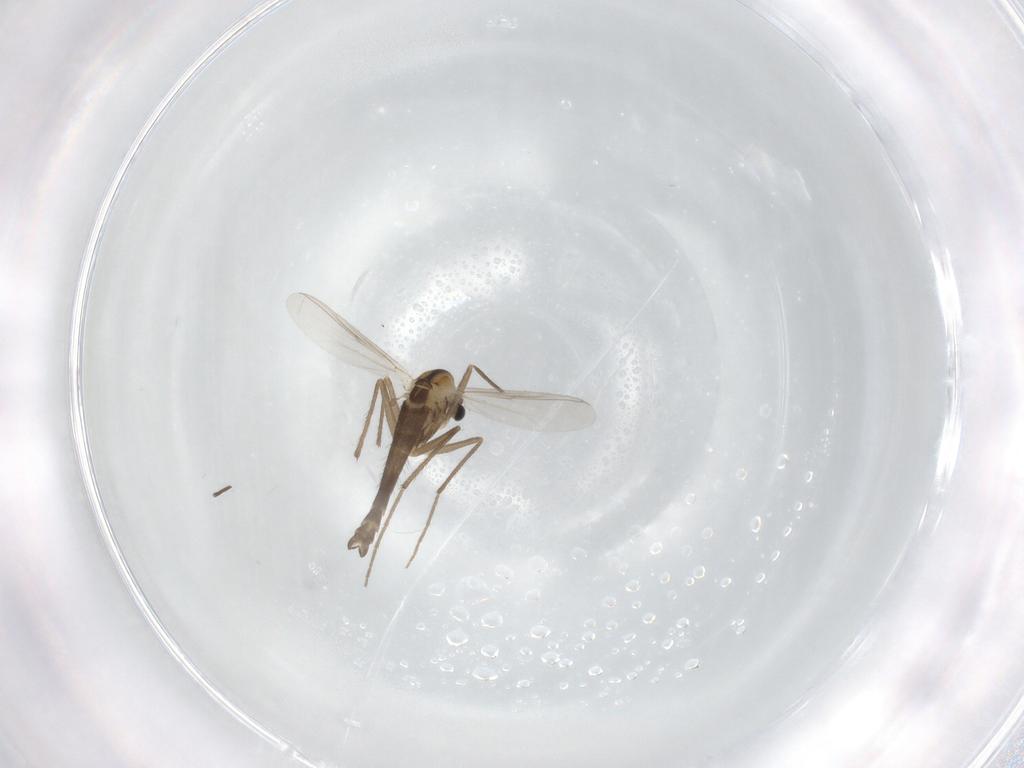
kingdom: Animalia
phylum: Arthropoda
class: Insecta
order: Diptera
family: Chironomidae
